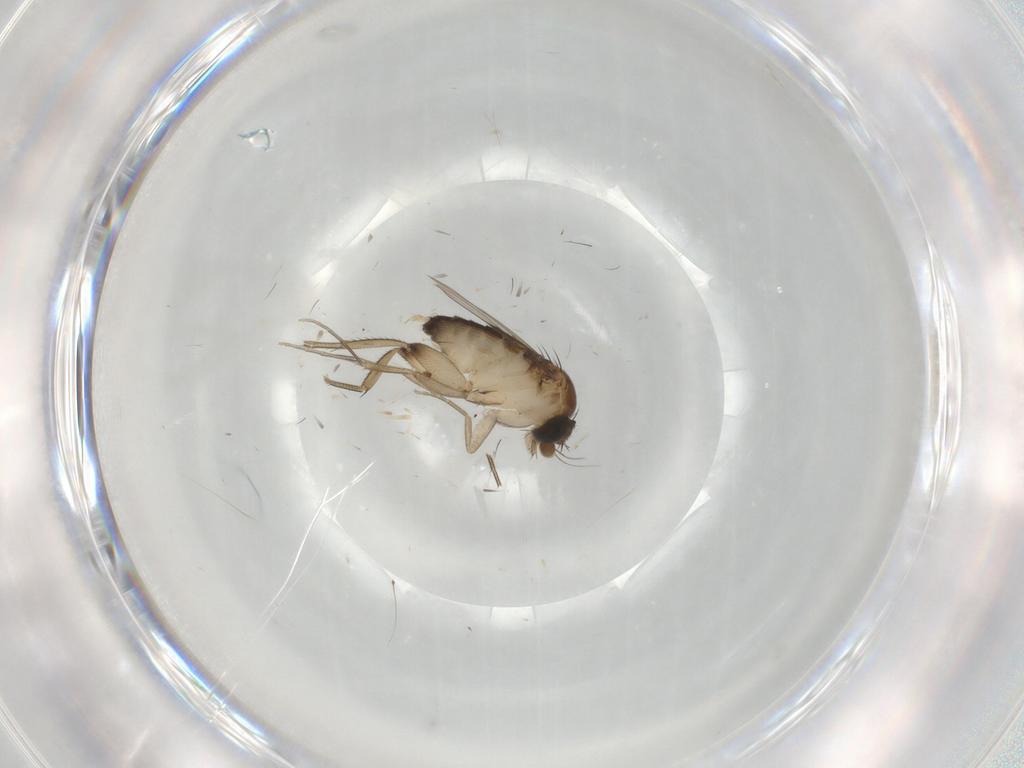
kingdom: Animalia
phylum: Arthropoda
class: Insecta
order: Diptera
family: Phoridae
